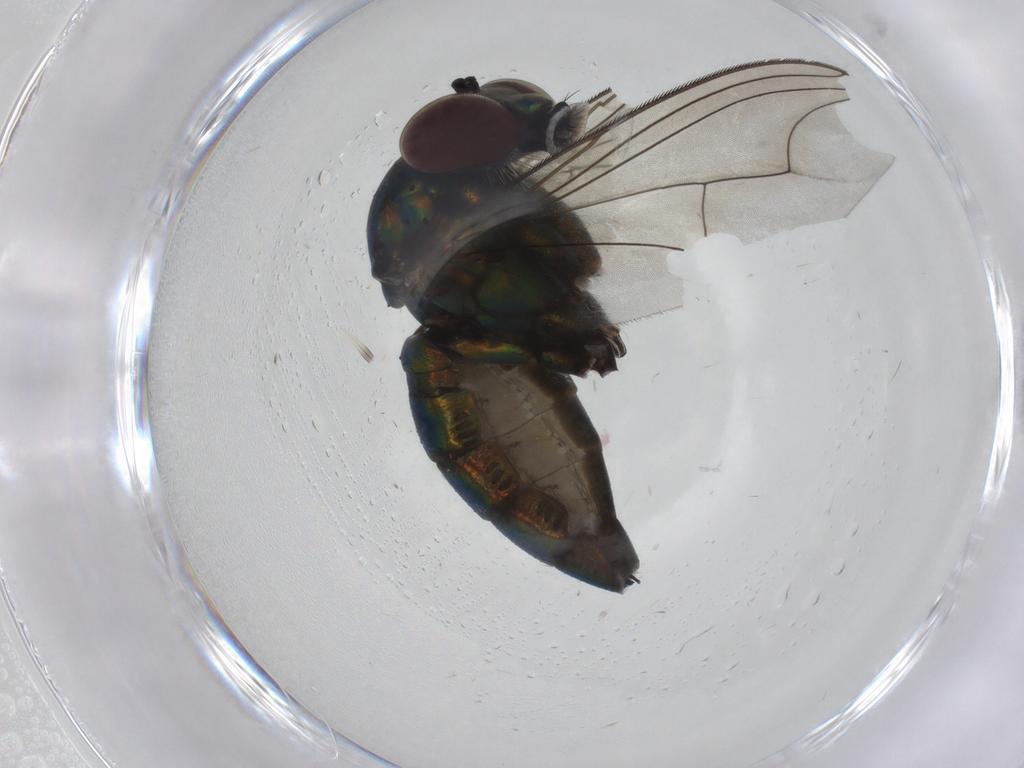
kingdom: Animalia
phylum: Arthropoda
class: Insecta
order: Diptera
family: Dolichopodidae
